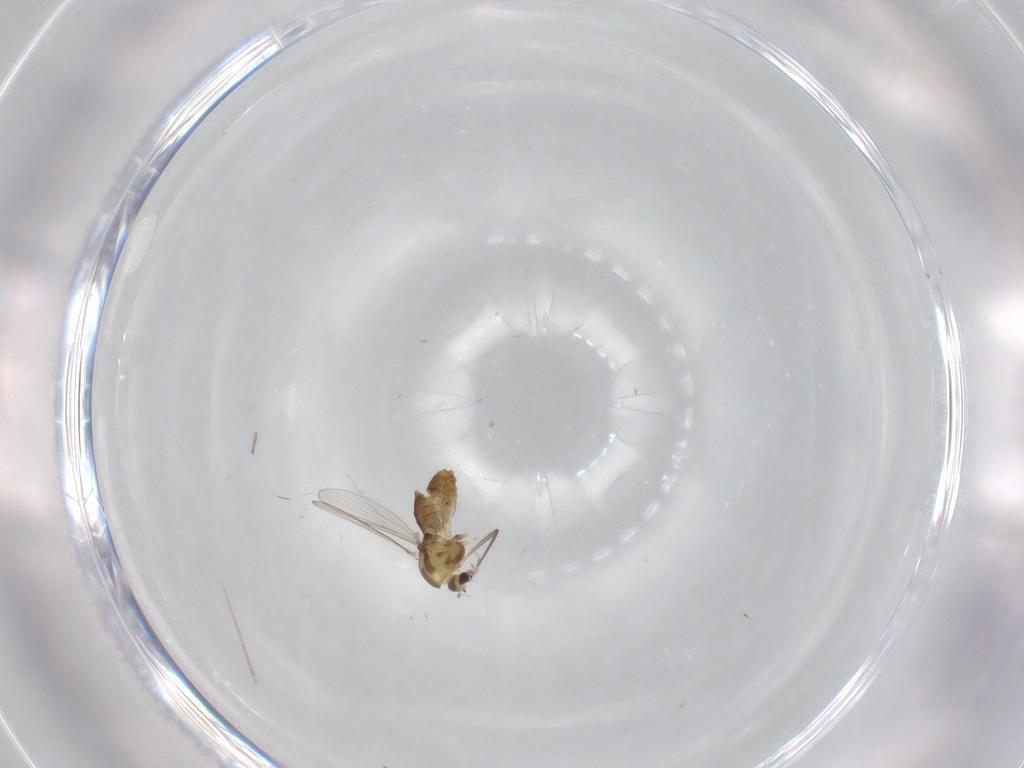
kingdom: Animalia
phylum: Arthropoda
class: Insecta
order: Diptera
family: Chironomidae
